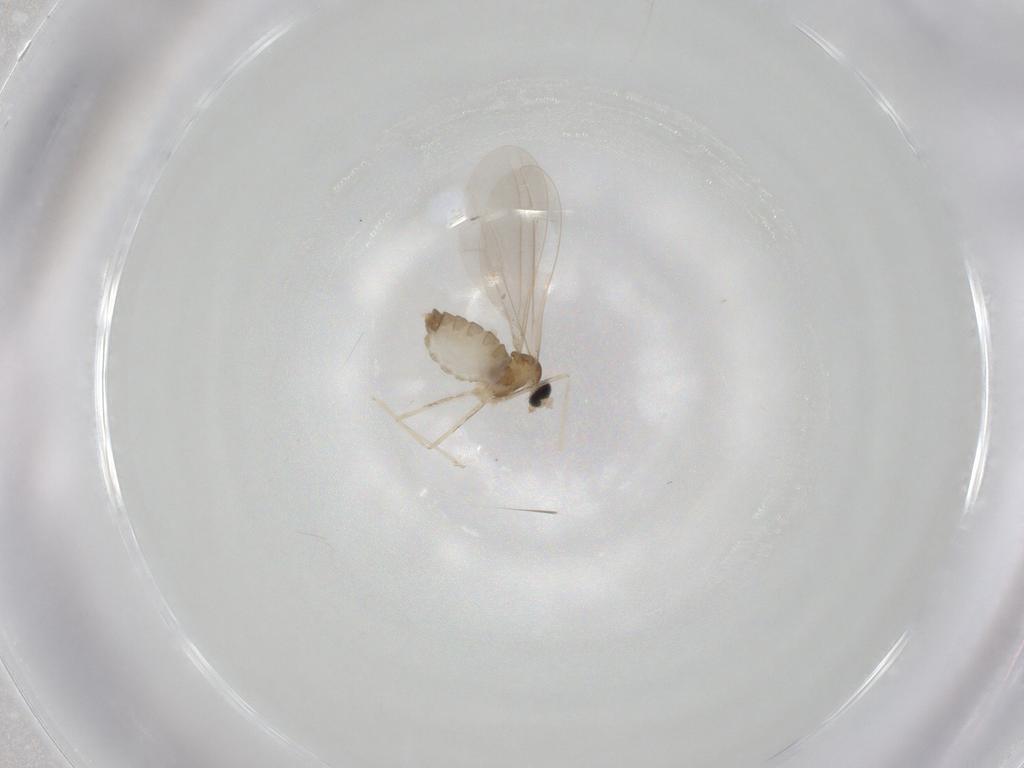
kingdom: Animalia
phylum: Arthropoda
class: Insecta
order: Diptera
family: Cecidomyiidae
